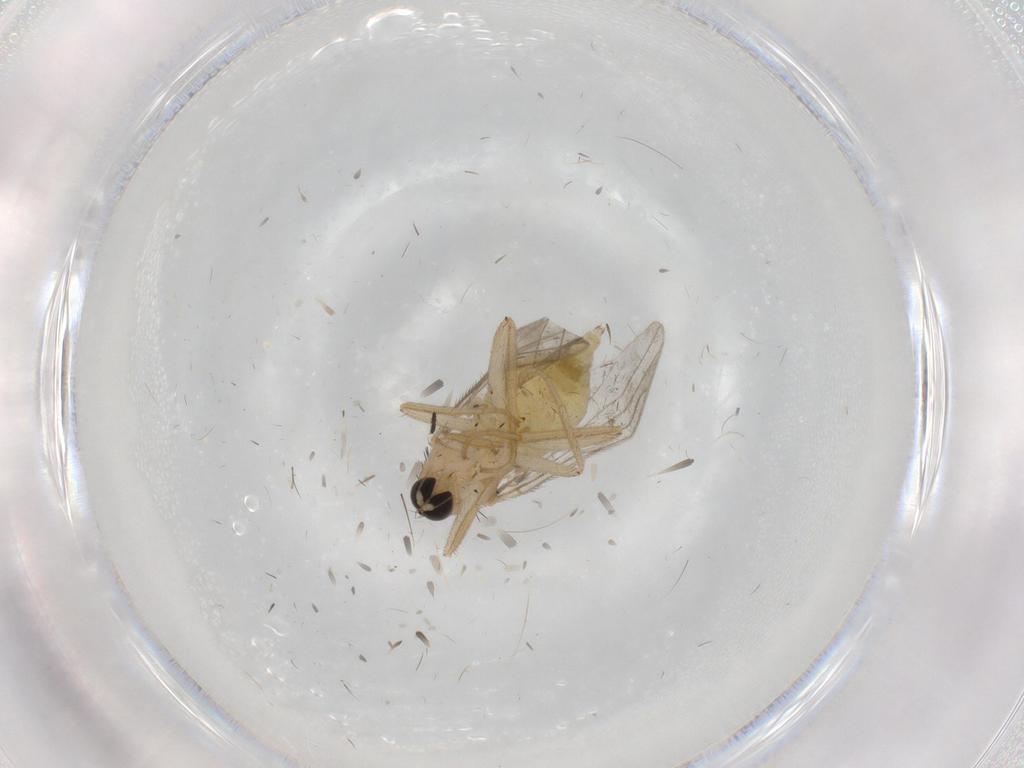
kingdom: Animalia
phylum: Arthropoda
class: Insecta
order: Diptera
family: Hybotidae
